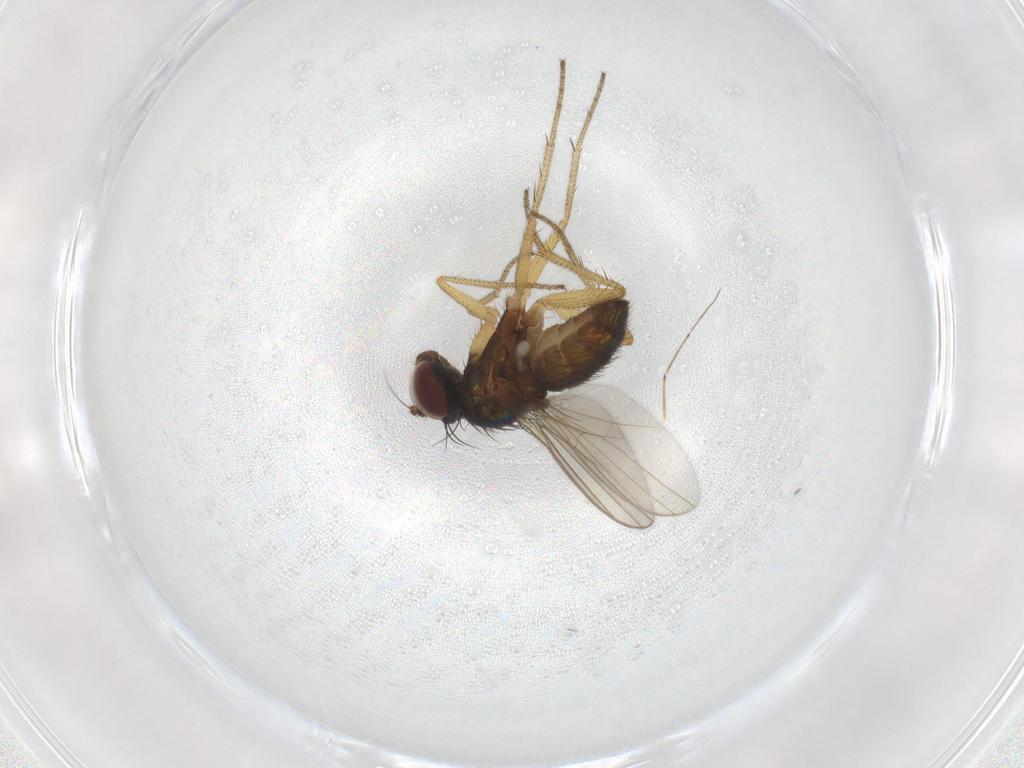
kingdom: Animalia
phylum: Arthropoda
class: Insecta
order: Diptera
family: Dolichopodidae
